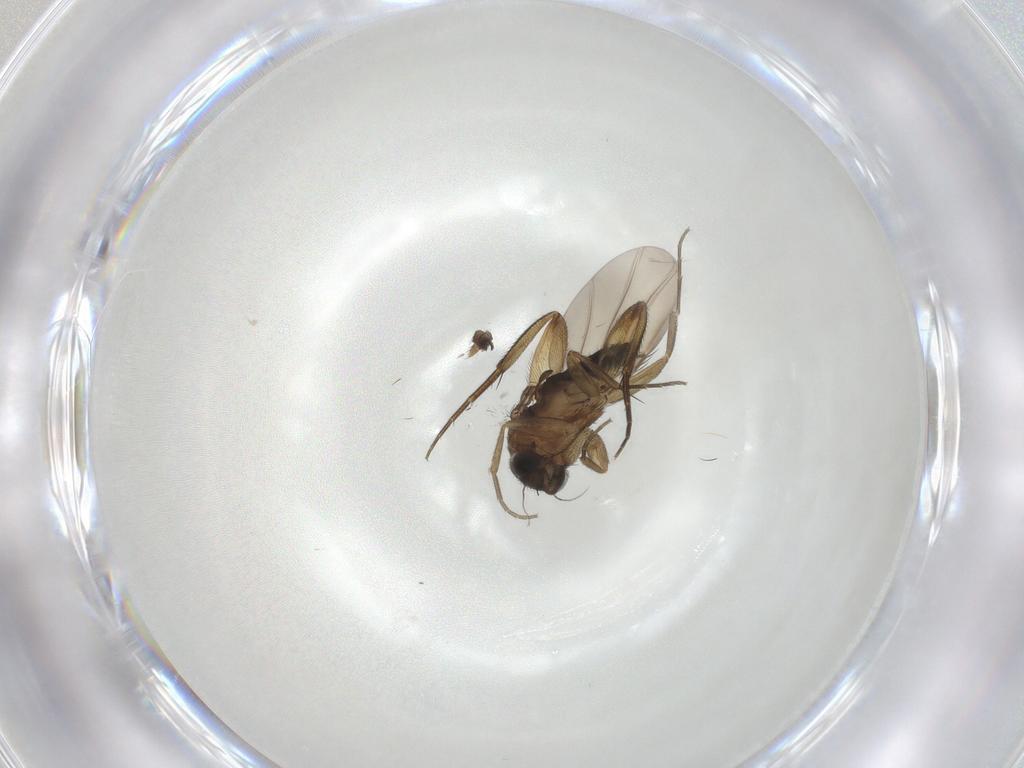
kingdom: Animalia
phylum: Arthropoda
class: Insecta
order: Diptera
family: Phoridae
